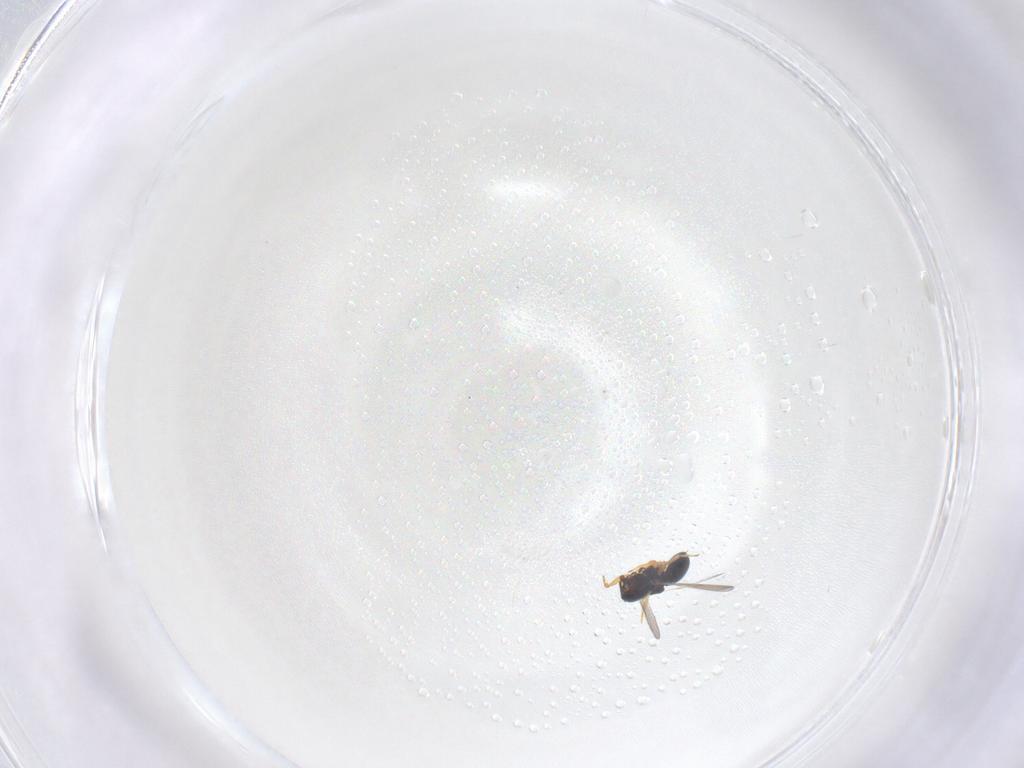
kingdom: Animalia
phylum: Arthropoda
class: Insecta
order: Hymenoptera
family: Scelionidae
